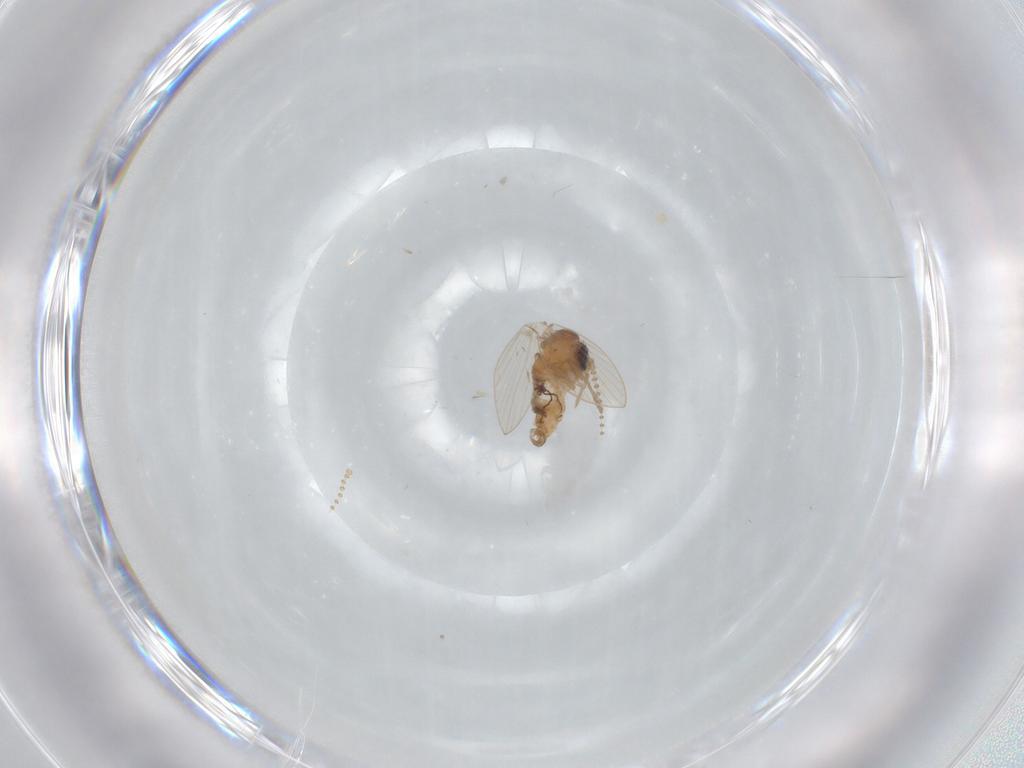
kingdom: Animalia
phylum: Arthropoda
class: Insecta
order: Diptera
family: Psychodidae
